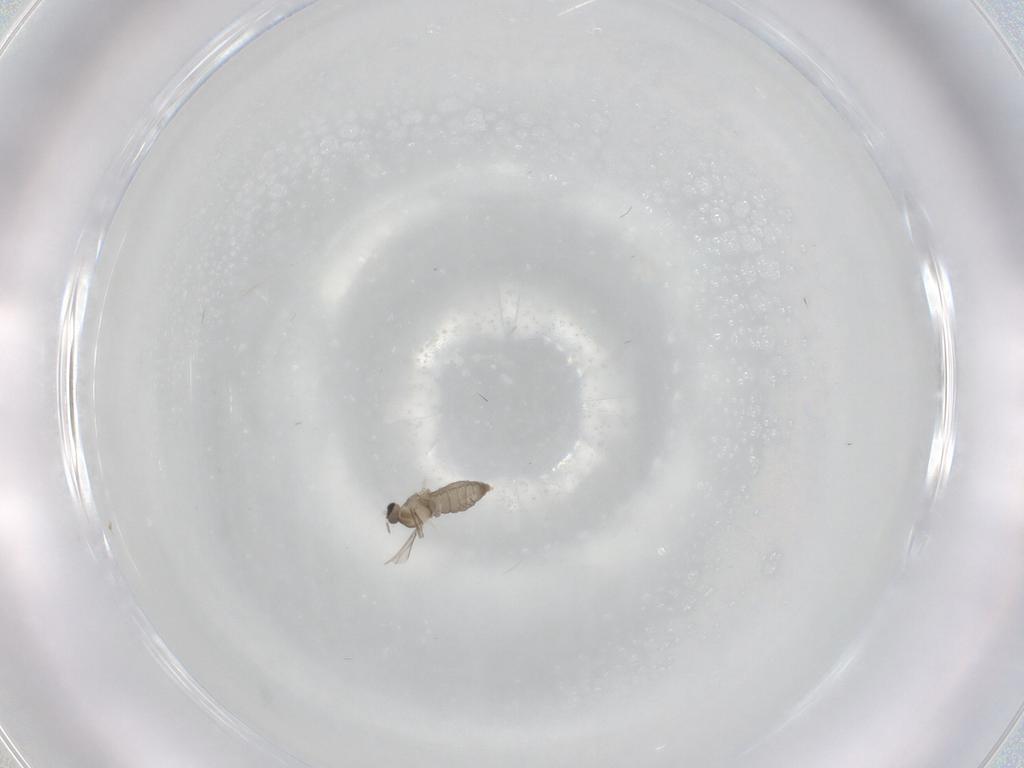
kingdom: Animalia
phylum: Arthropoda
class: Insecta
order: Diptera
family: Cecidomyiidae
